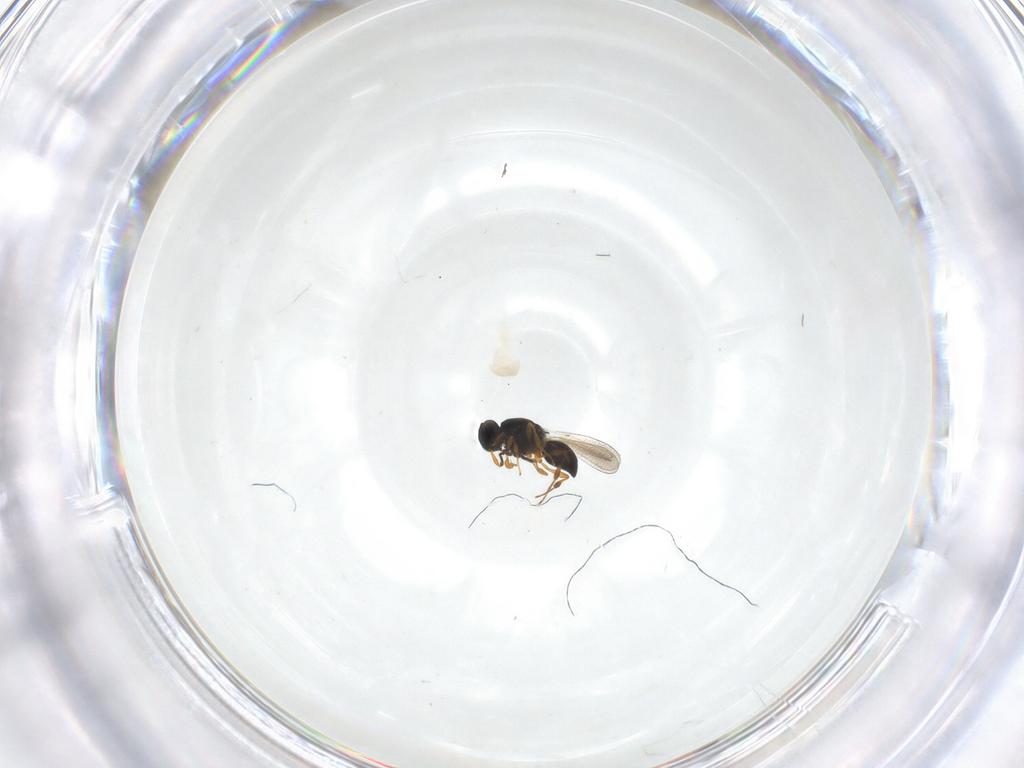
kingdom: Animalia
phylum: Arthropoda
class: Insecta
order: Hymenoptera
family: Platygastridae
